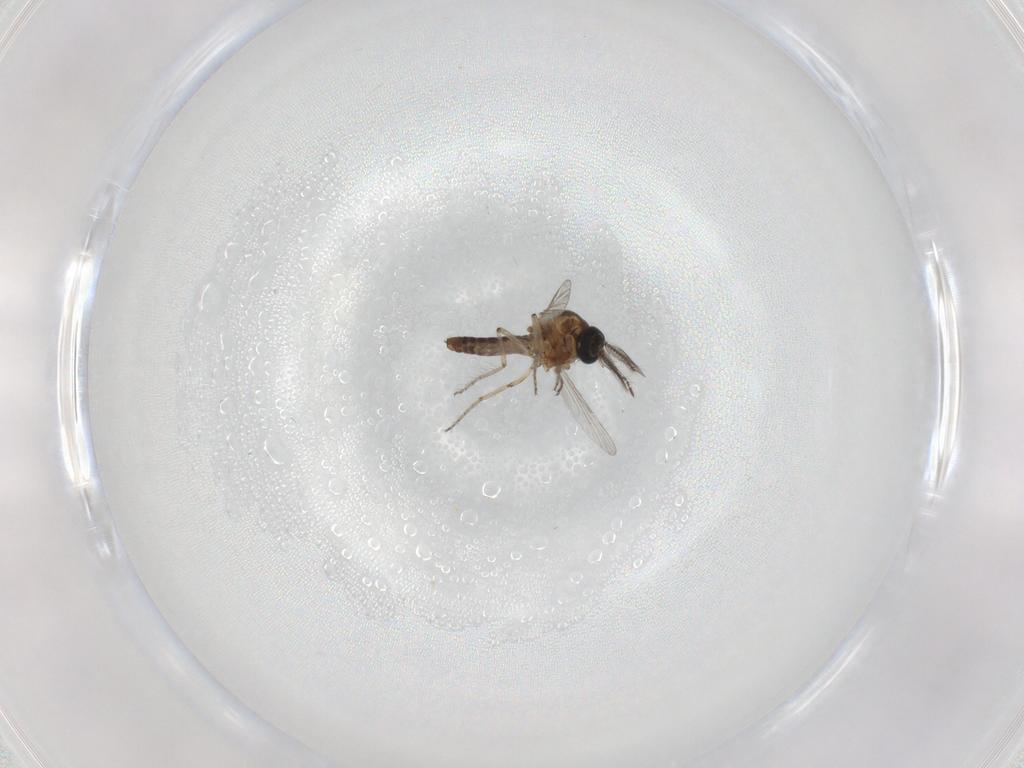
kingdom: Animalia
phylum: Arthropoda
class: Insecta
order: Diptera
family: Ceratopogonidae
